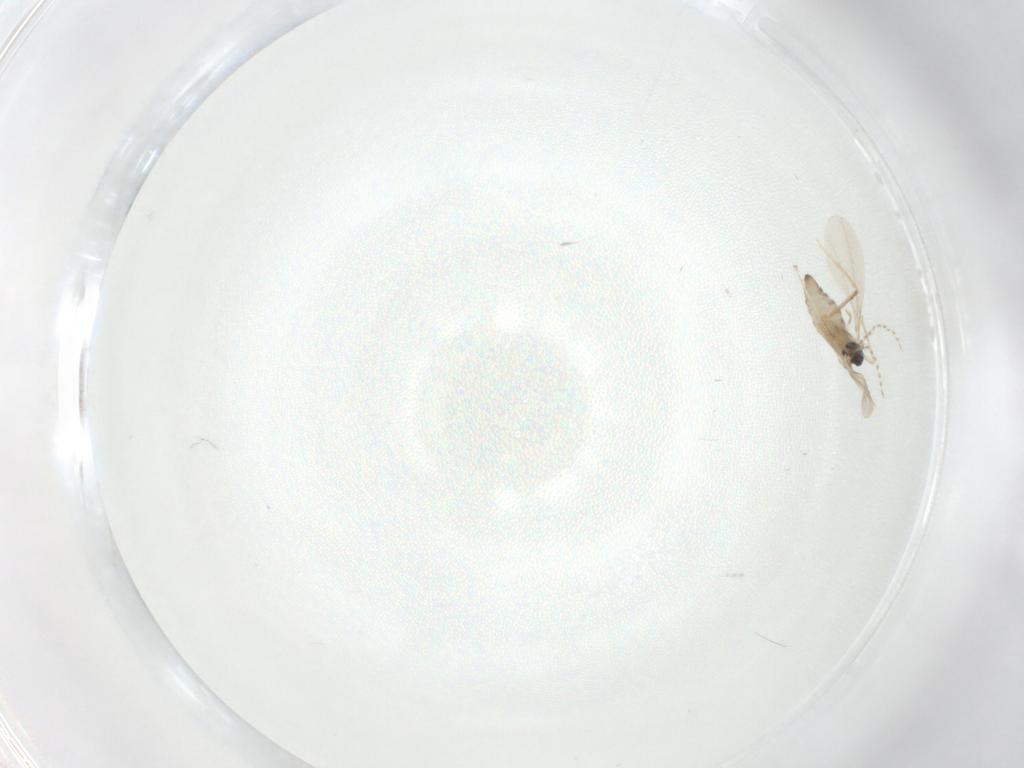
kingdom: Animalia
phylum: Arthropoda
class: Insecta
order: Diptera
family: Cecidomyiidae
